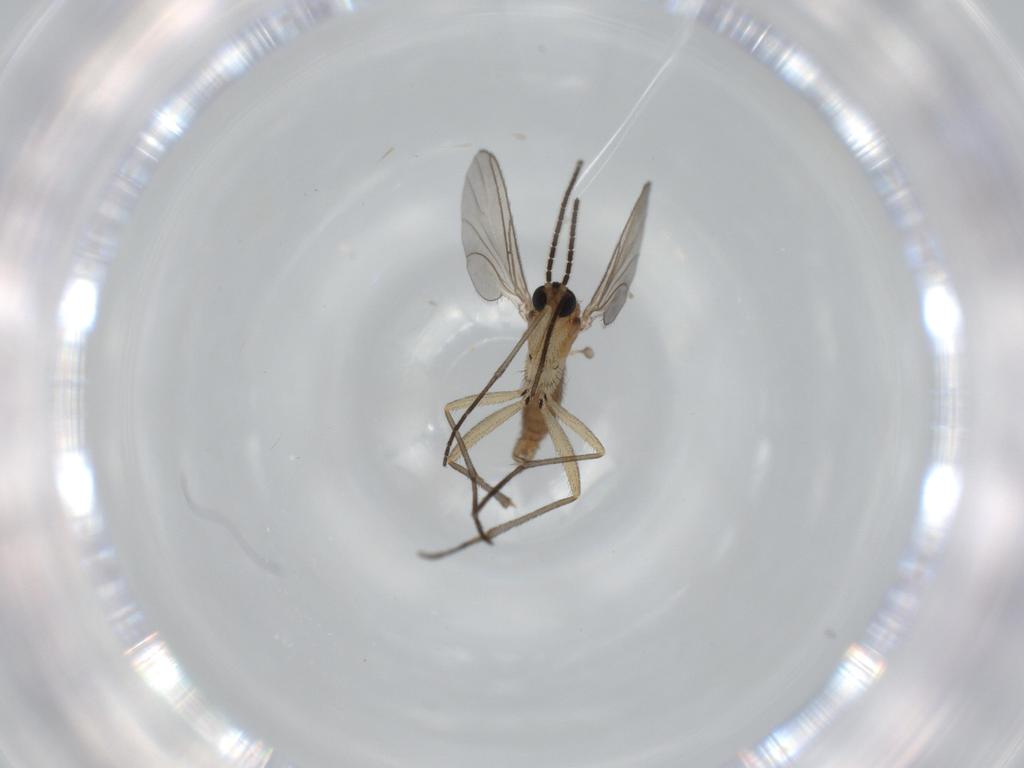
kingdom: Animalia
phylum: Arthropoda
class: Insecta
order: Diptera
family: Sciaridae
